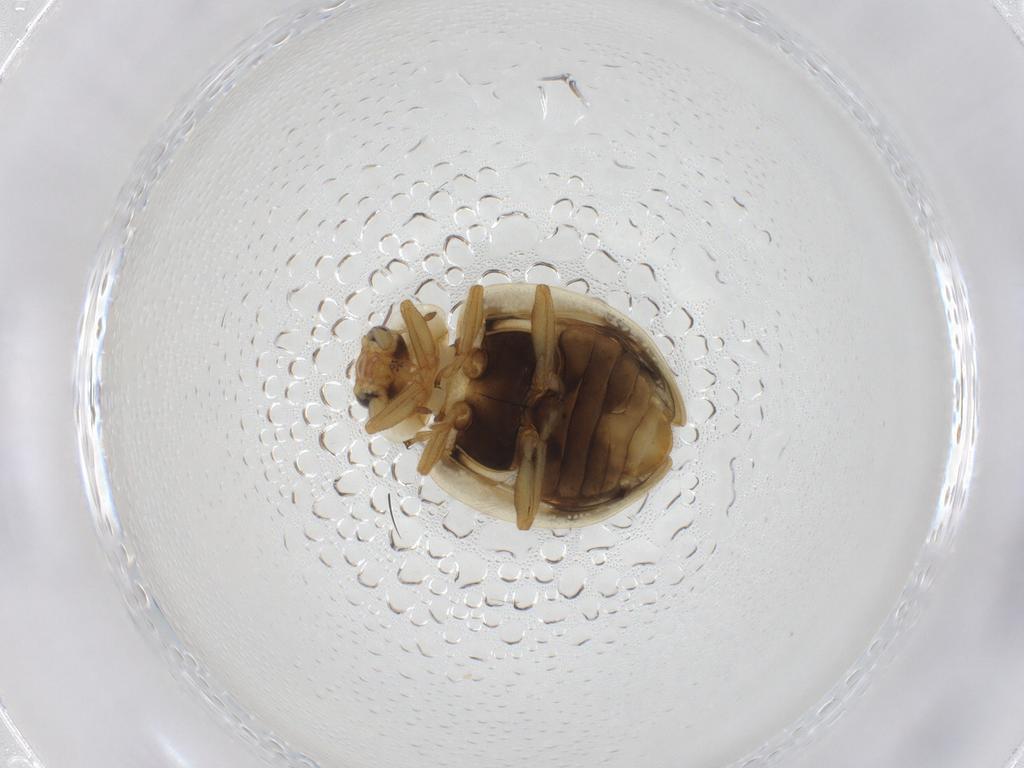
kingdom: Animalia
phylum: Arthropoda
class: Insecta
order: Coleoptera
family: Coccinellidae
